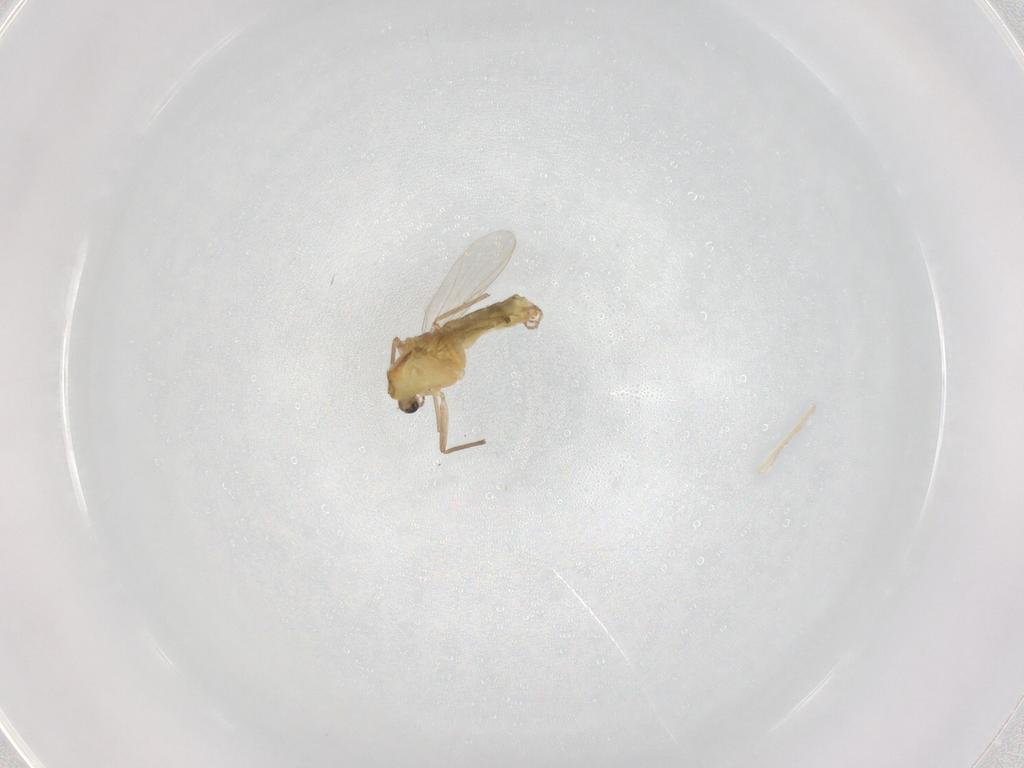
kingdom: Animalia
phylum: Arthropoda
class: Insecta
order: Diptera
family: Chironomidae
